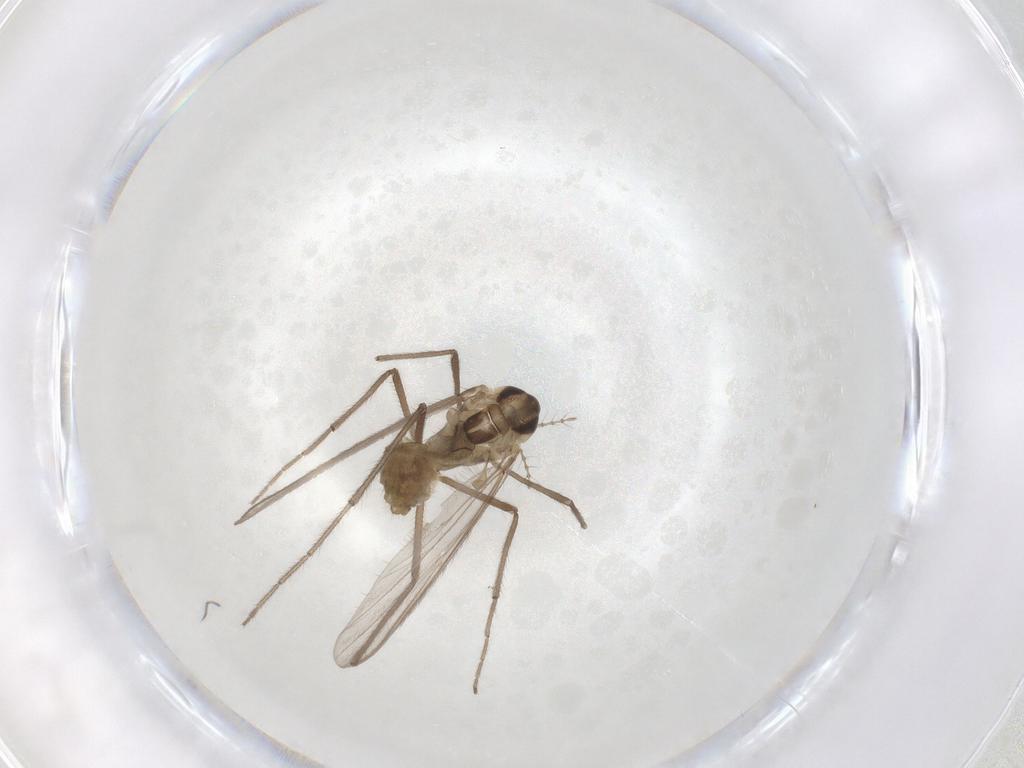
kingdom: Animalia
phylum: Arthropoda
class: Insecta
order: Diptera
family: Chironomidae
